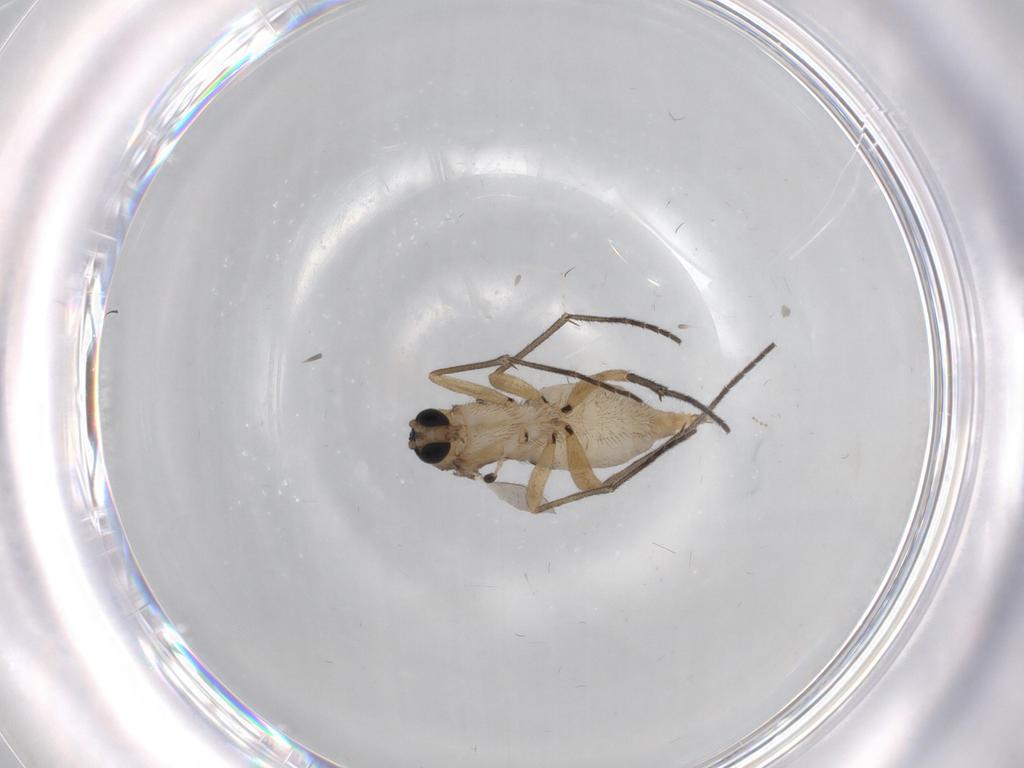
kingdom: Animalia
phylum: Arthropoda
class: Insecta
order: Diptera
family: Sciaridae
